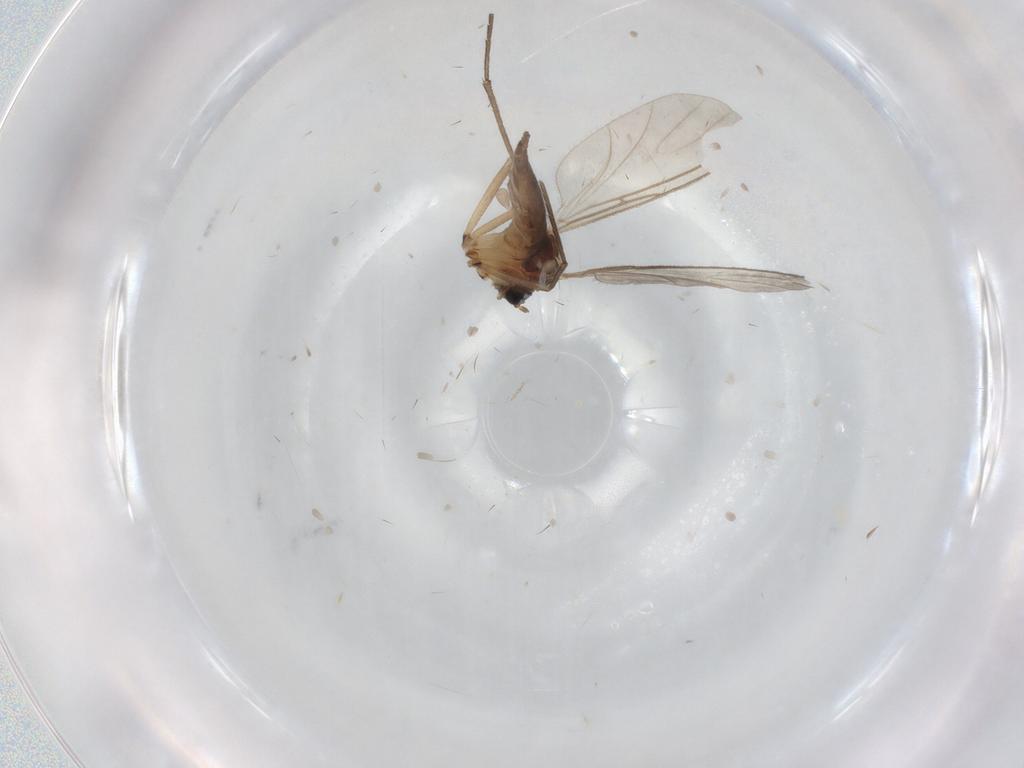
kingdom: Animalia
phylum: Arthropoda
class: Insecta
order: Diptera
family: Sciaridae
